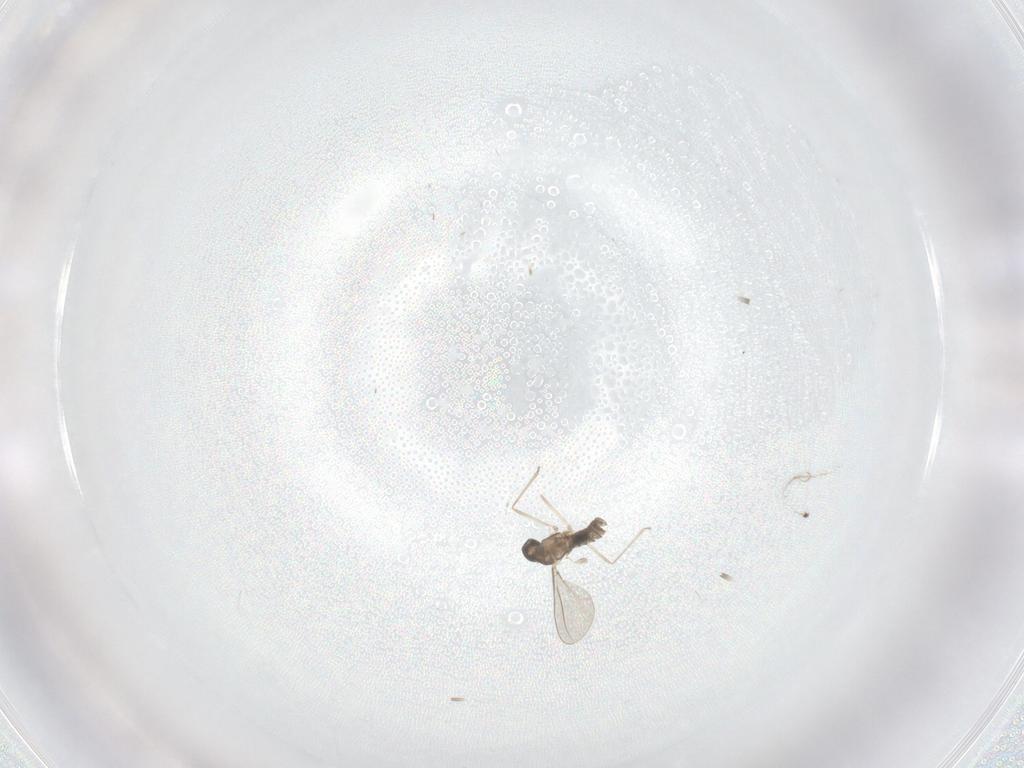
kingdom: Animalia
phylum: Arthropoda
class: Insecta
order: Diptera
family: Psychodidae
